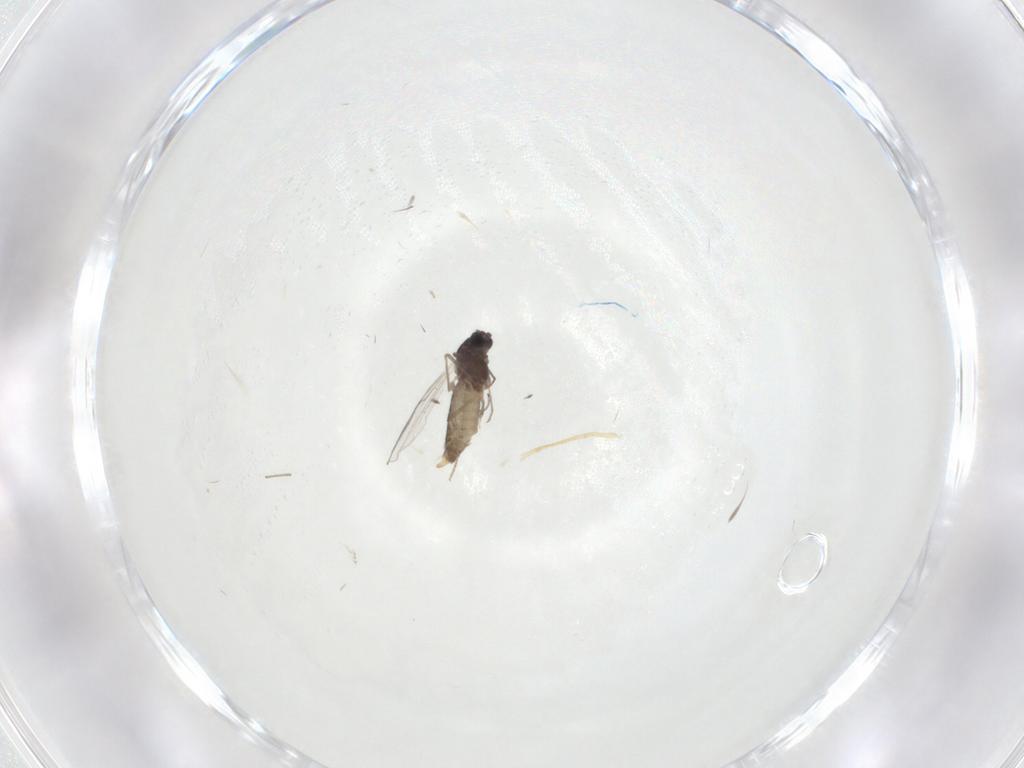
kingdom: Animalia
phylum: Arthropoda
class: Insecta
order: Diptera
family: Chironomidae
